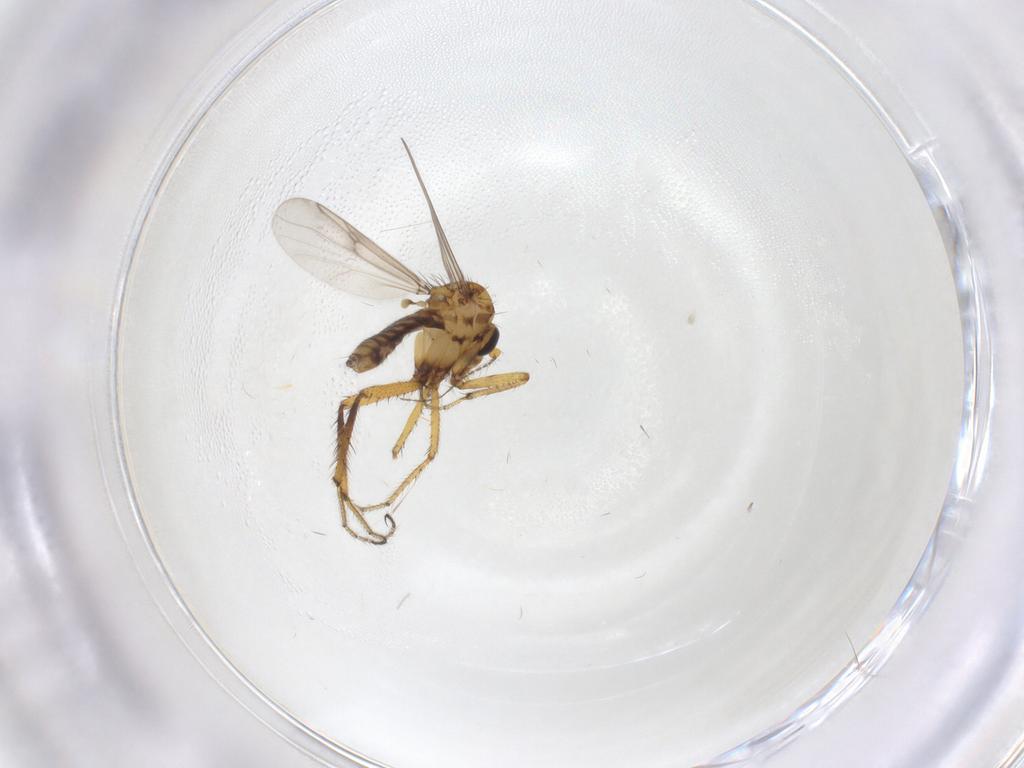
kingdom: Animalia
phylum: Arthropoda
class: Insecta
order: Diptera
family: Ceratopogonidae
